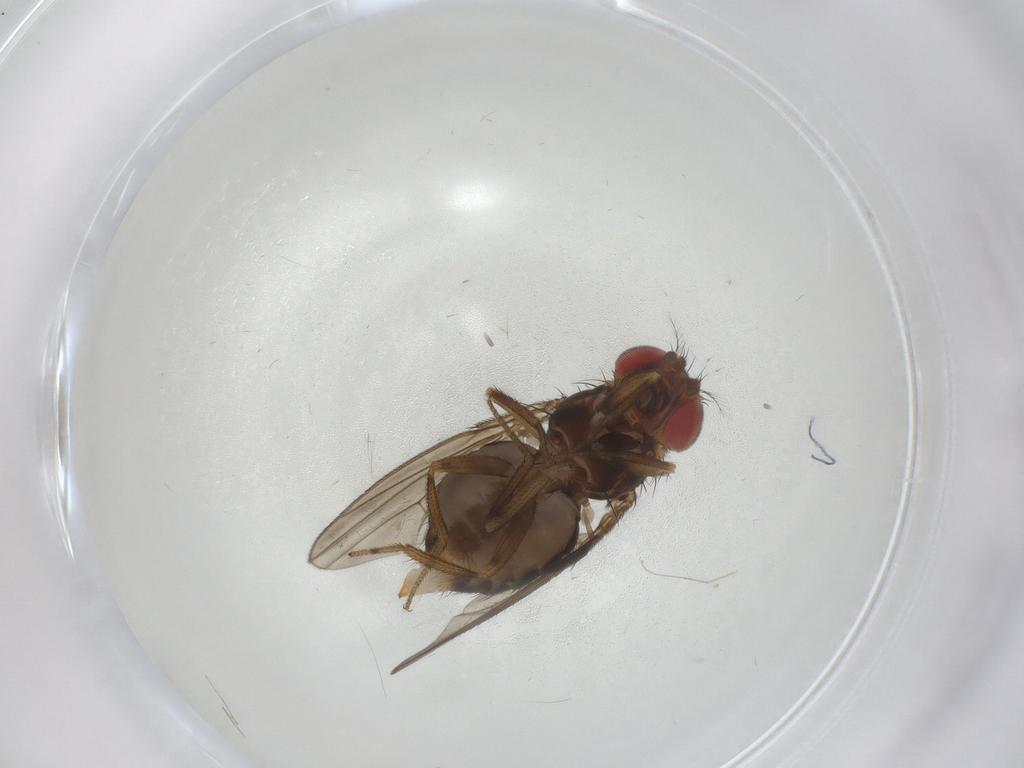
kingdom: Animalia
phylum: Arthropoda
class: Insecta
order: Diptera
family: Drosophilidae
